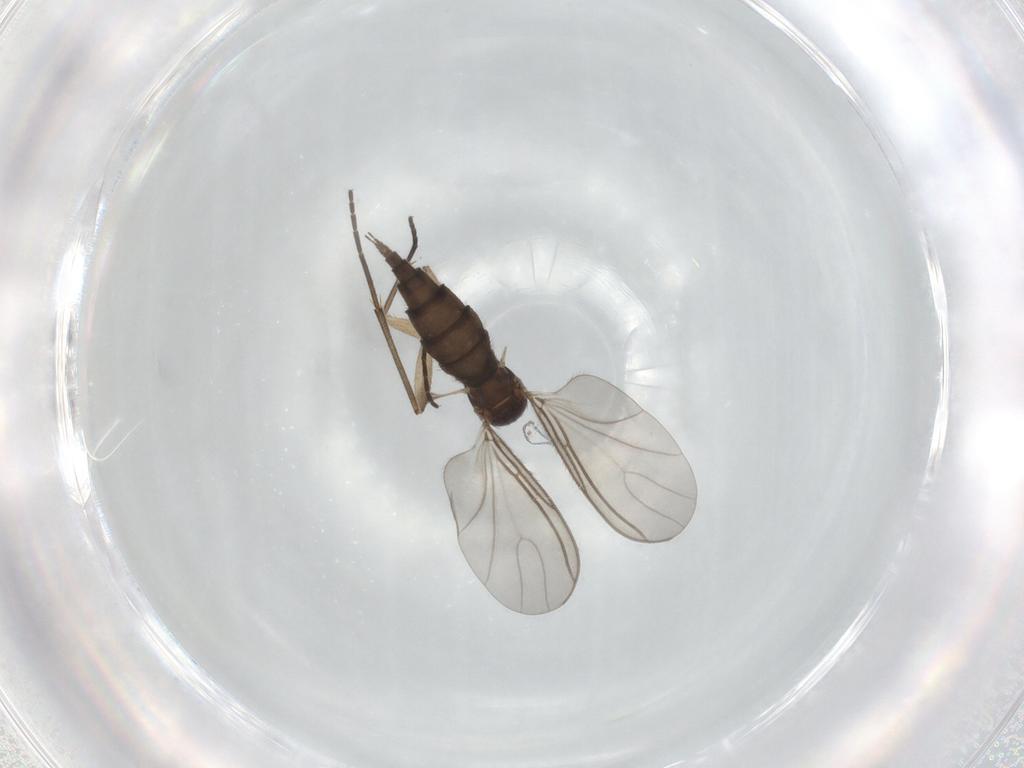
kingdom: Animalia
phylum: Arthropoda
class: Insecta
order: Diptera
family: Sciaridae
